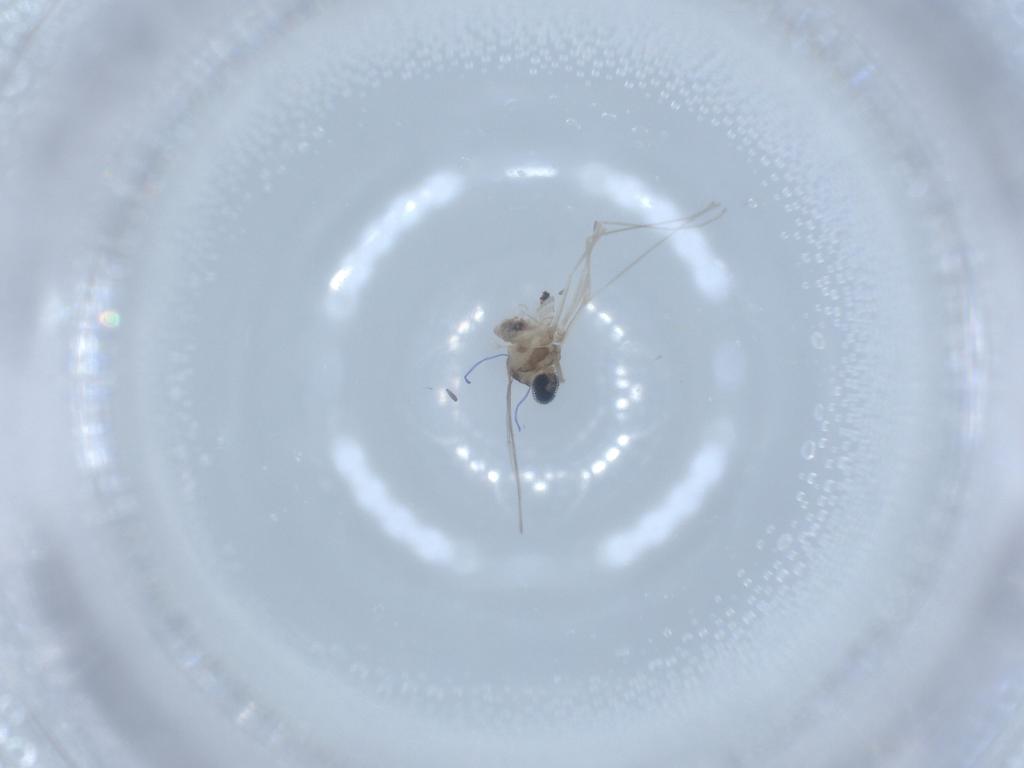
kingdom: Animalia
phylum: Arthropoda
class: Insecta
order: Diptera
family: Cecidomyiidae
